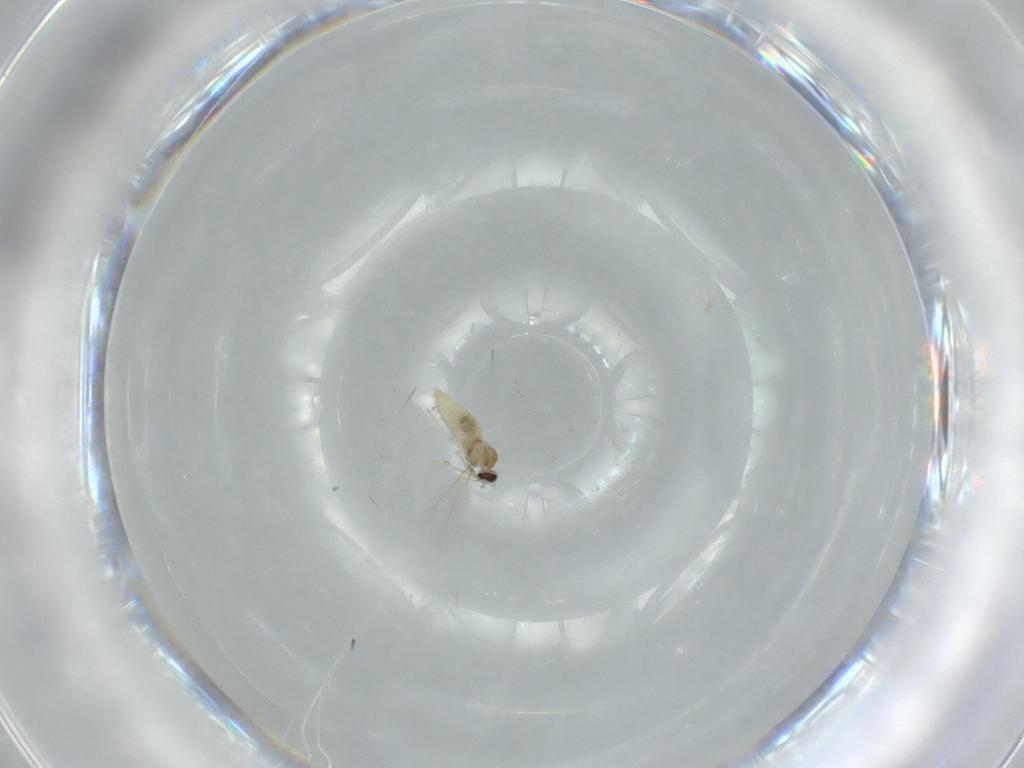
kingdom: Animalia
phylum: Arthropoda
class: Insecta
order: Diptera
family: Cecidomyiidae
